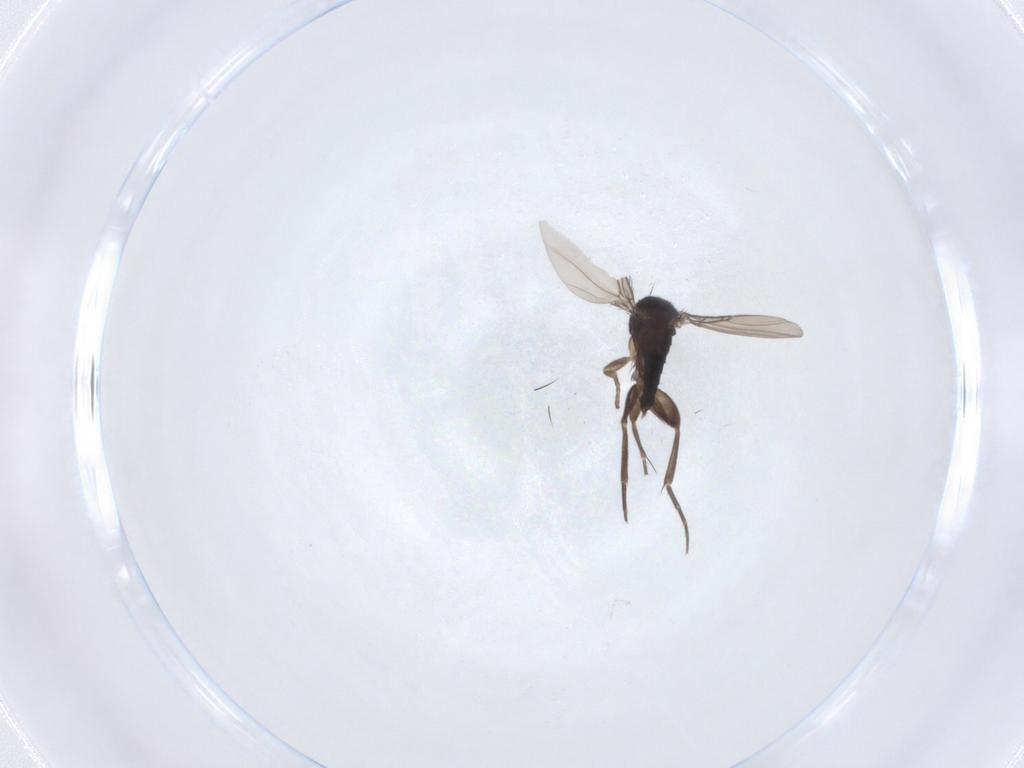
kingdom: Animalia
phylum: Arthropoda
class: Insecta
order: Diptera
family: Phoridae
